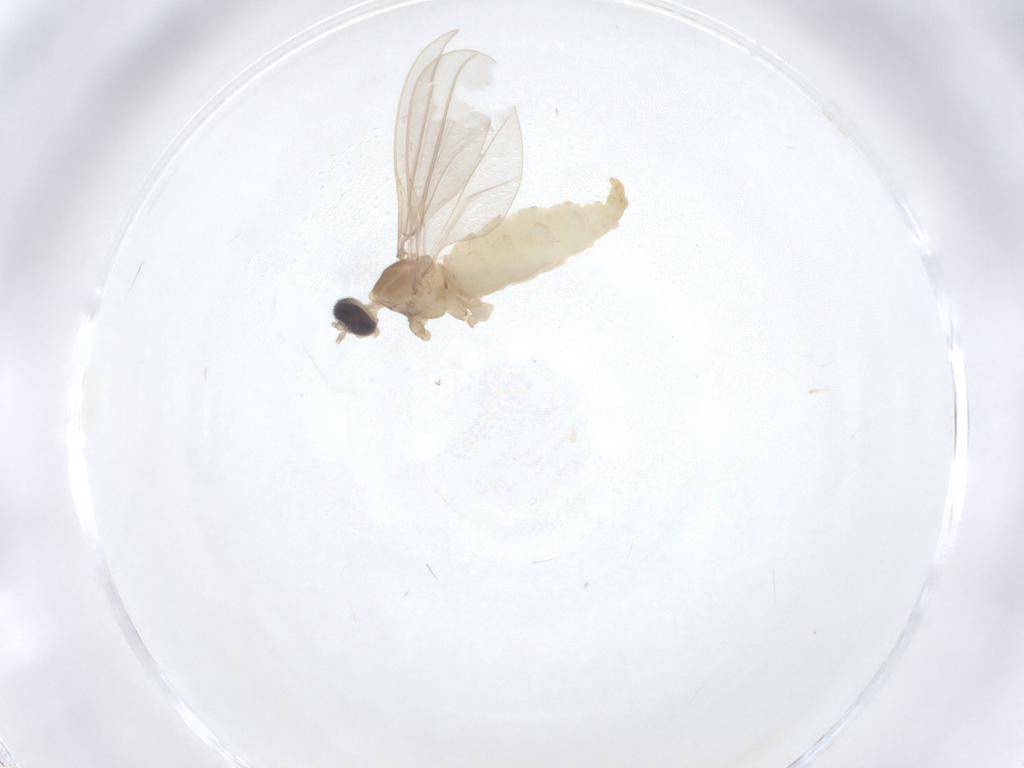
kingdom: Animalia
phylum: Arthropoda
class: Insecta
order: Diptera
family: Cecidomyiidae
